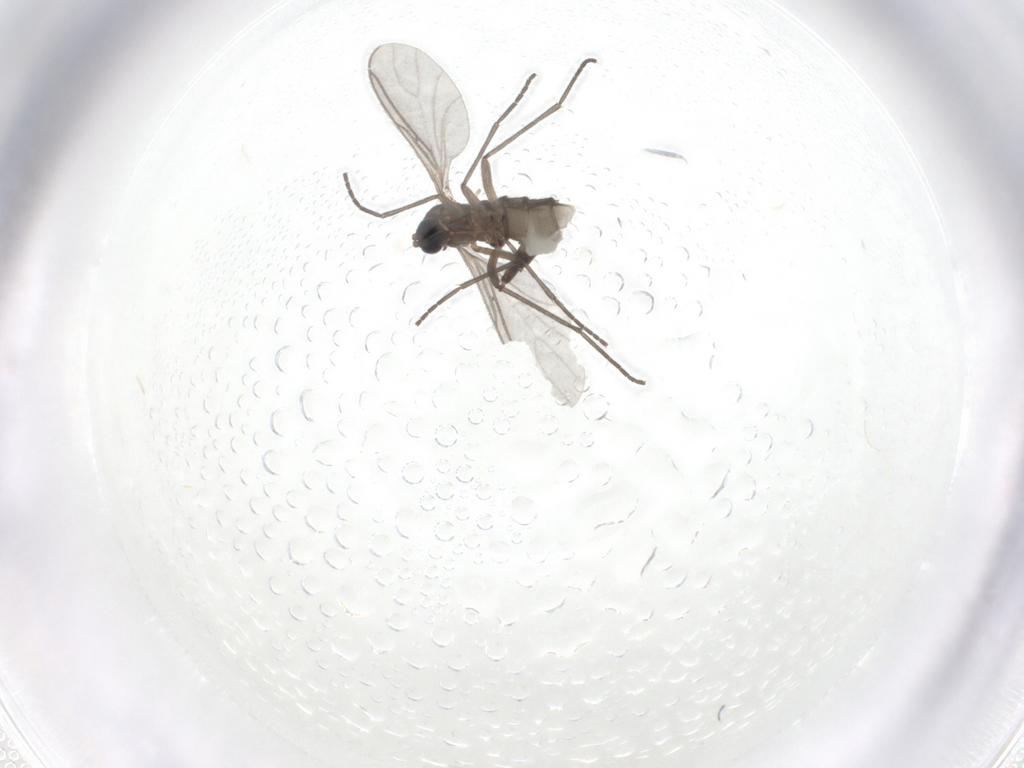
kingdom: Animalia
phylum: Arthropoda
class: Insecta
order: Diptera
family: Sciaridae
